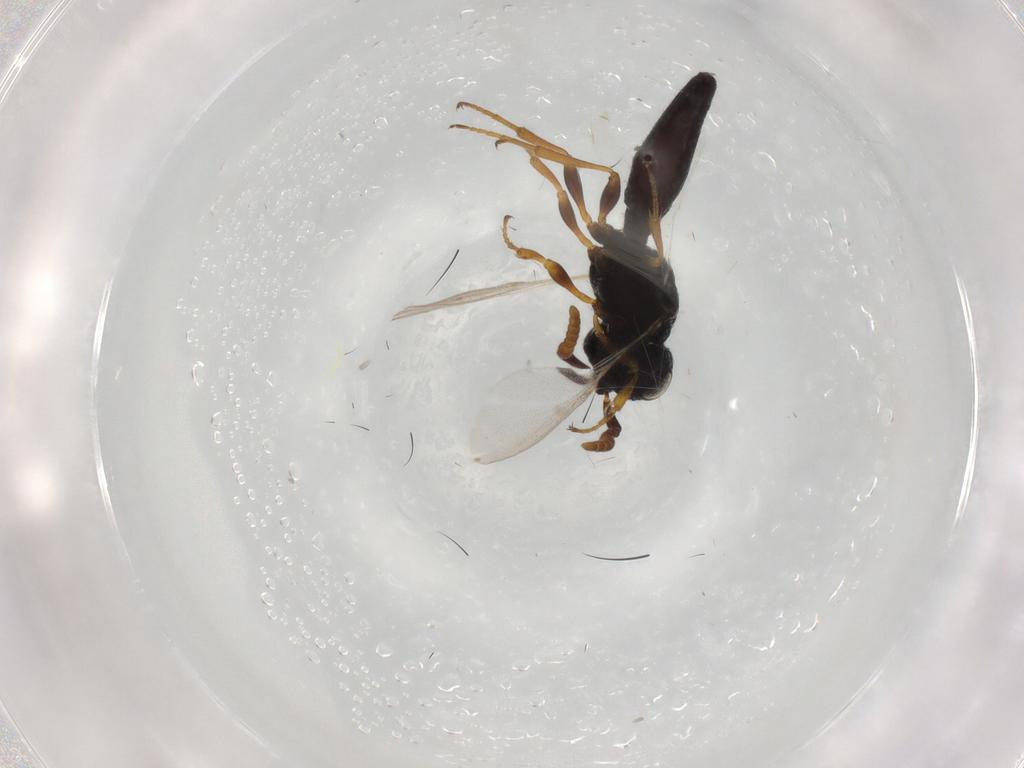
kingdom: Animalia
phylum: Arthropoda
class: Insecta
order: Hymenoptera
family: Scelionidae
